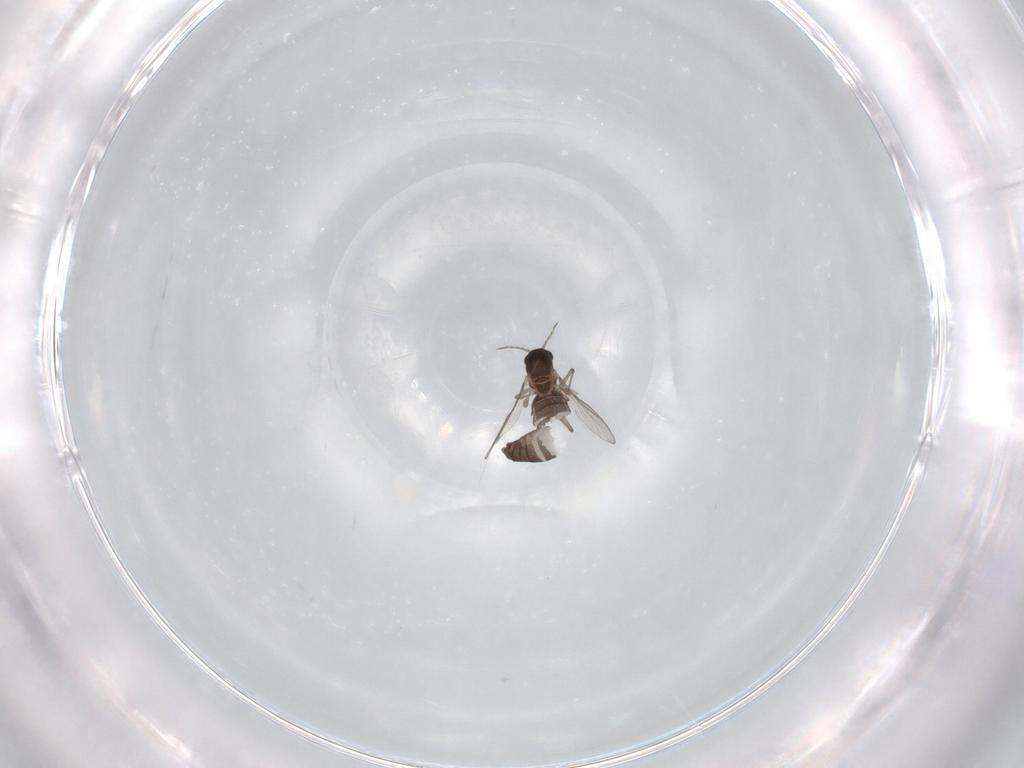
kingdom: Animalia
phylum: Arthropoda
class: Insecta
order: Diptera
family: Chironomidae
